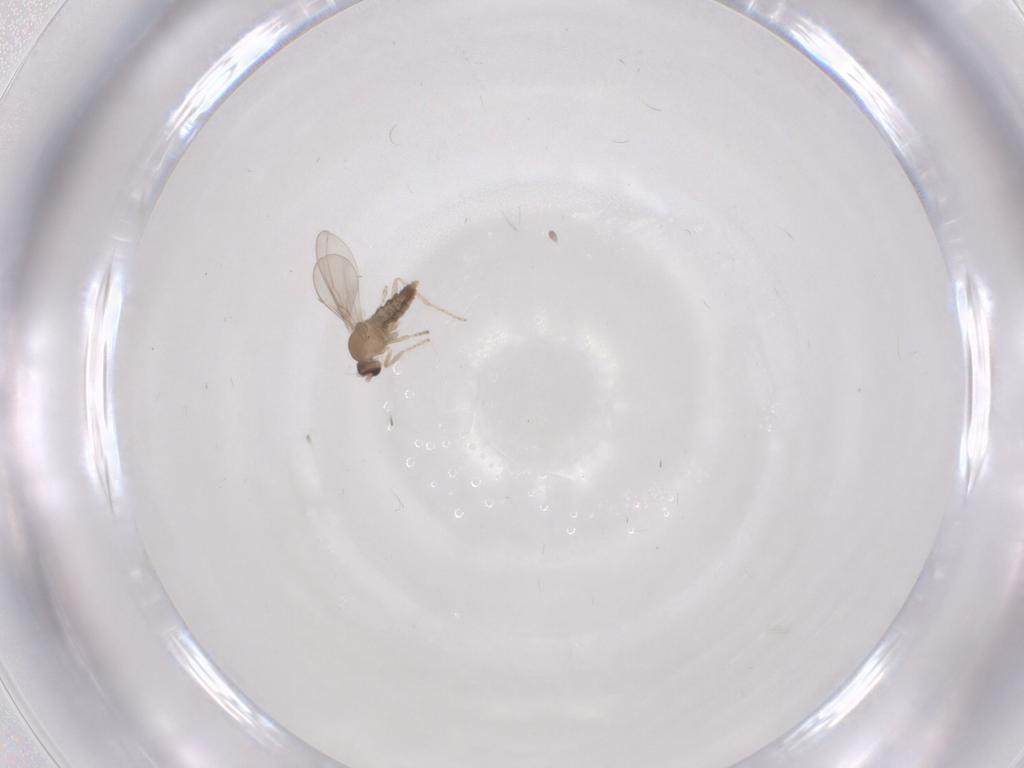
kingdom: Animalia
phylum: Arthropoda
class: Insecta
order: Diptera
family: Cecidomyiidae
